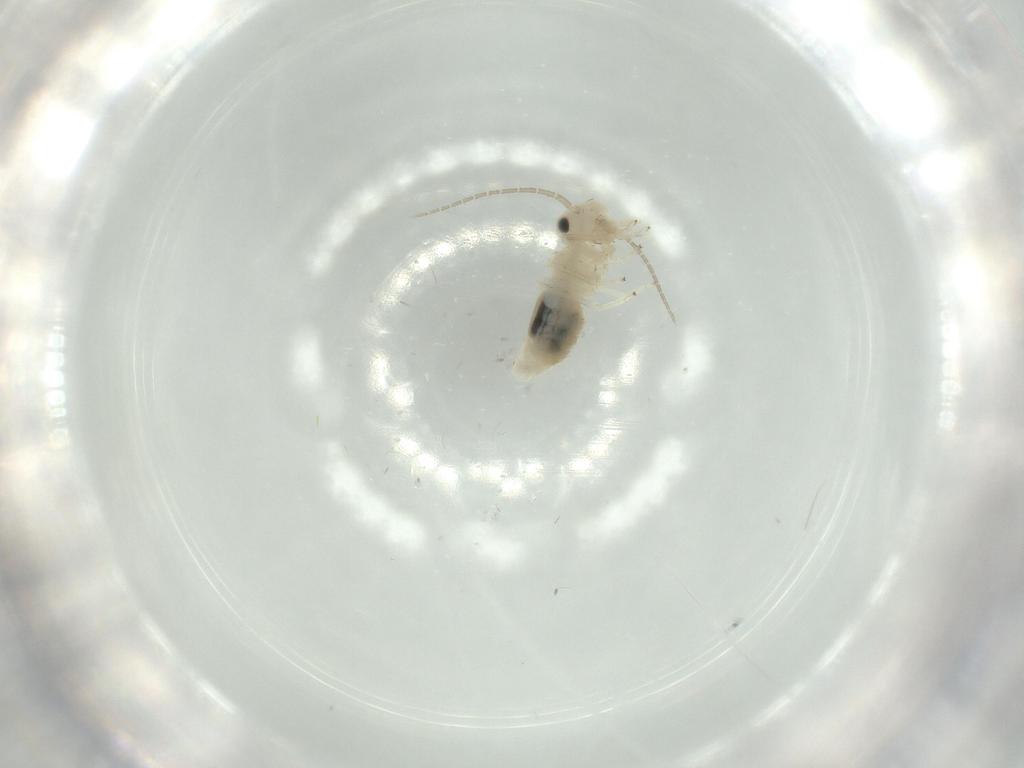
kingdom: Animalia
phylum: Arthropoda
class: Insecta
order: Psocodea
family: Caeciliusidae
